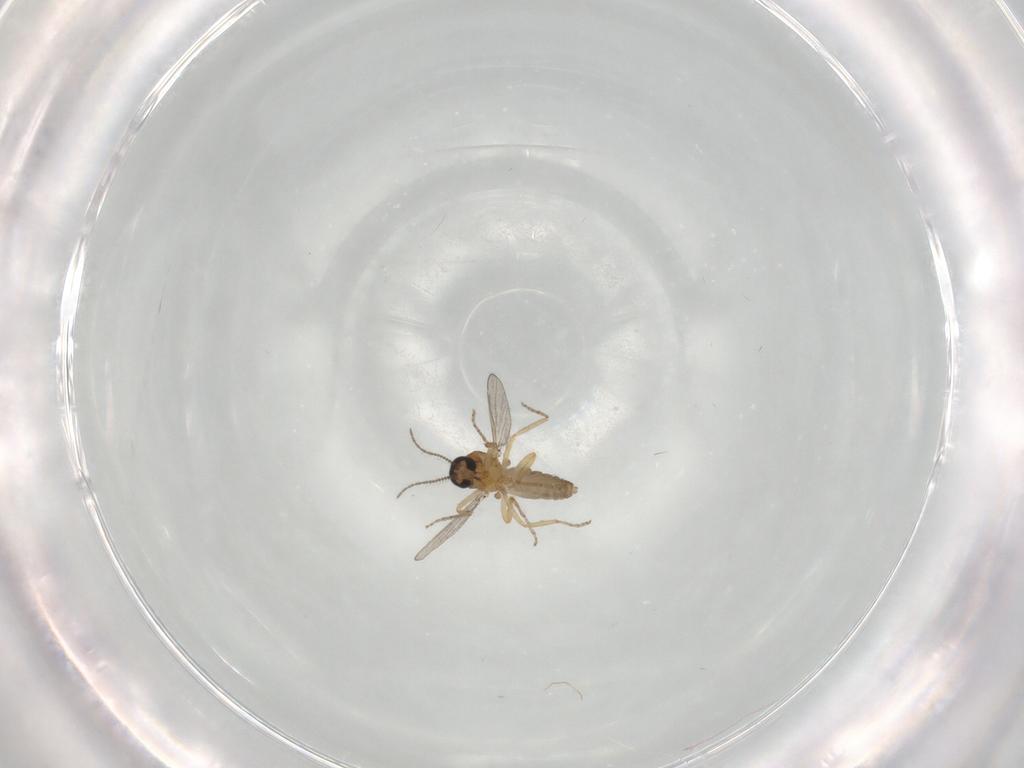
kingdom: Animalia
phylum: Arthropoda
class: Insecta
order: Diptera
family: Ceratopogonidae
